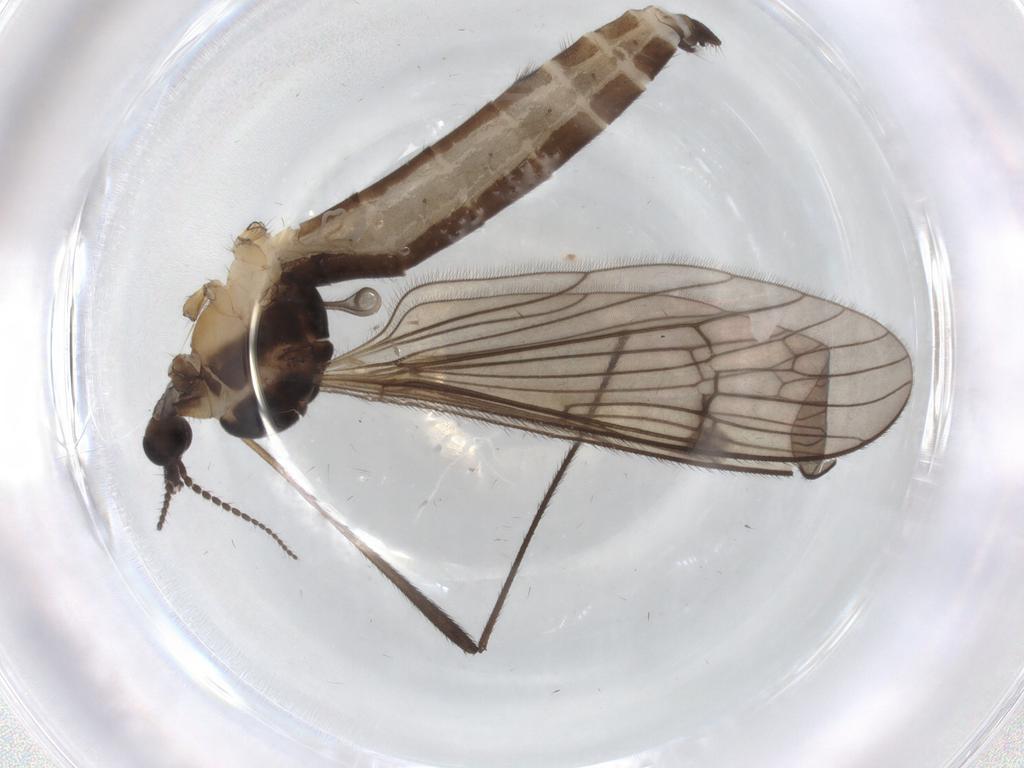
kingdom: Animalia
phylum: Arthropoda
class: Insecta
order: Diptera
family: Limoniidae
